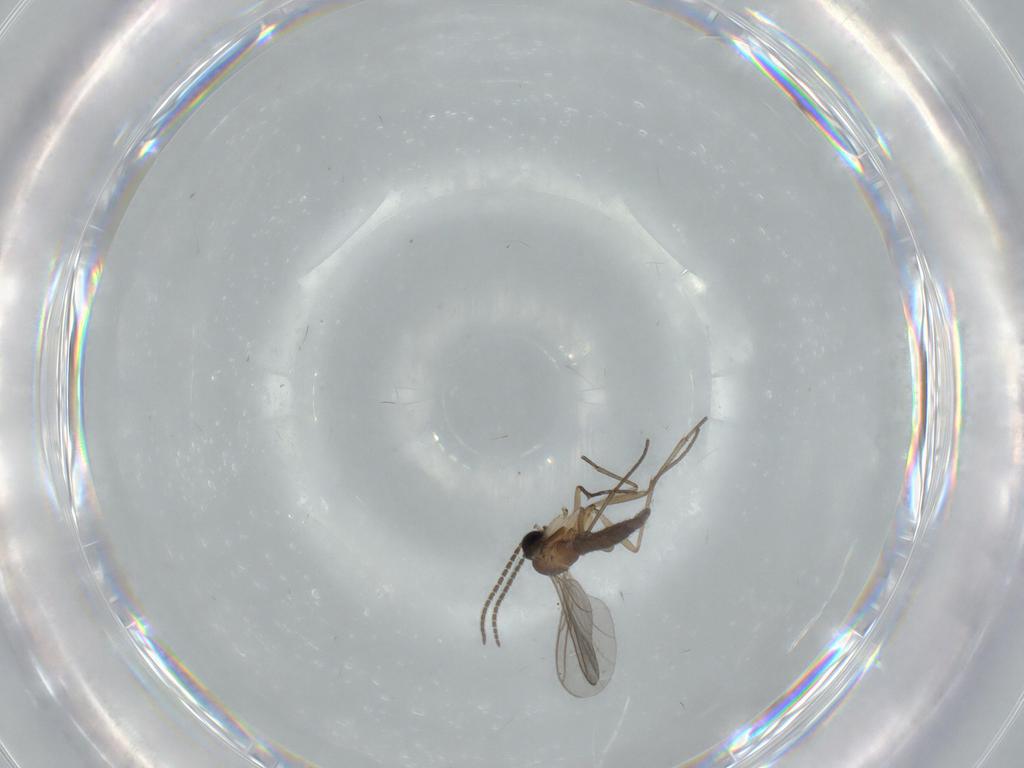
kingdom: Animalia
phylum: Arthropoda
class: Insecta
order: Diptera
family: Sciaridae
